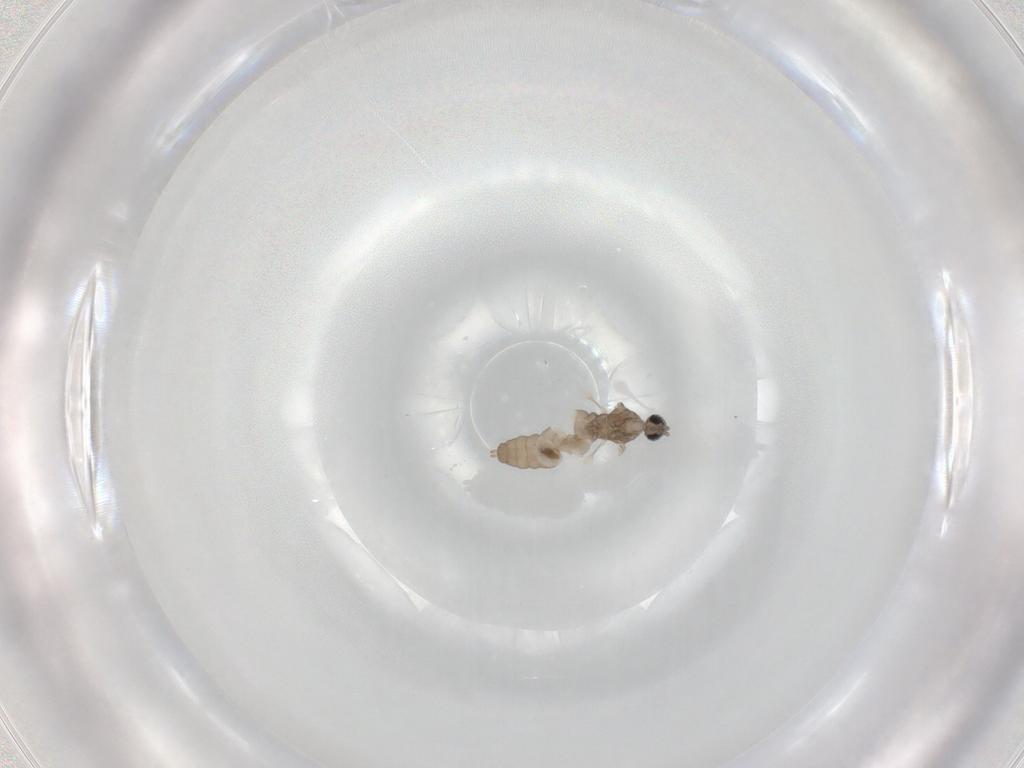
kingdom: Animalia
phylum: Arthropoda
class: Insecta
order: Diptera
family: Cecidomyiidae
